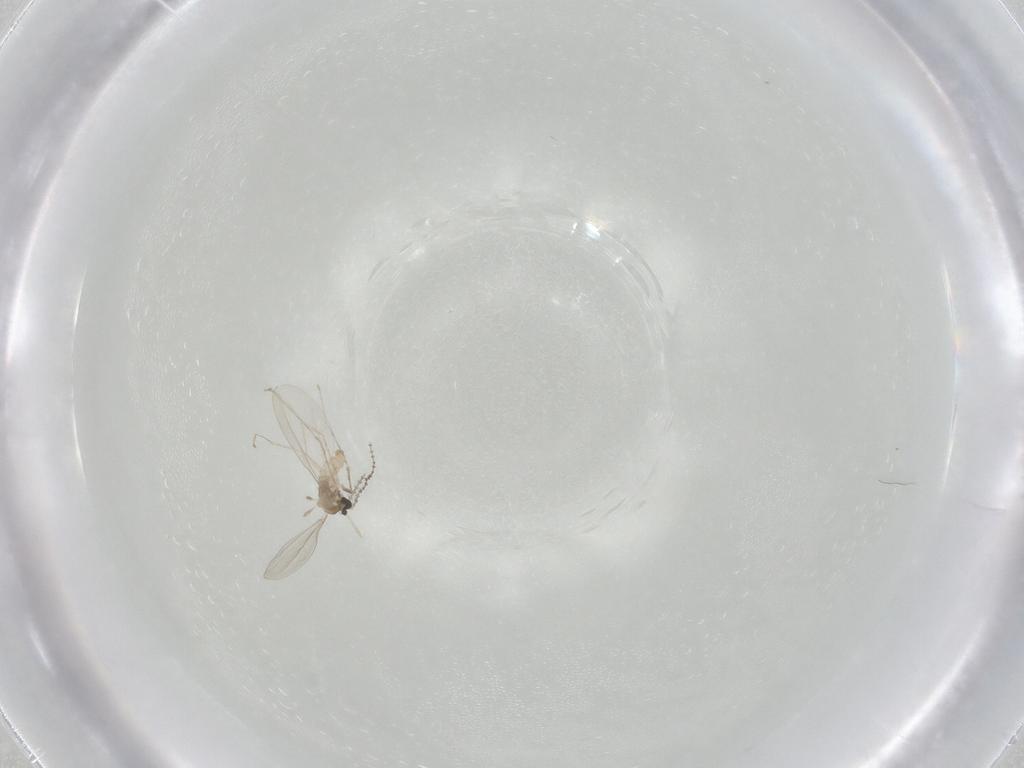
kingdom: Animalia
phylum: Arthropoda
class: Insecta
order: Diptera
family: Cecidomyiidae
